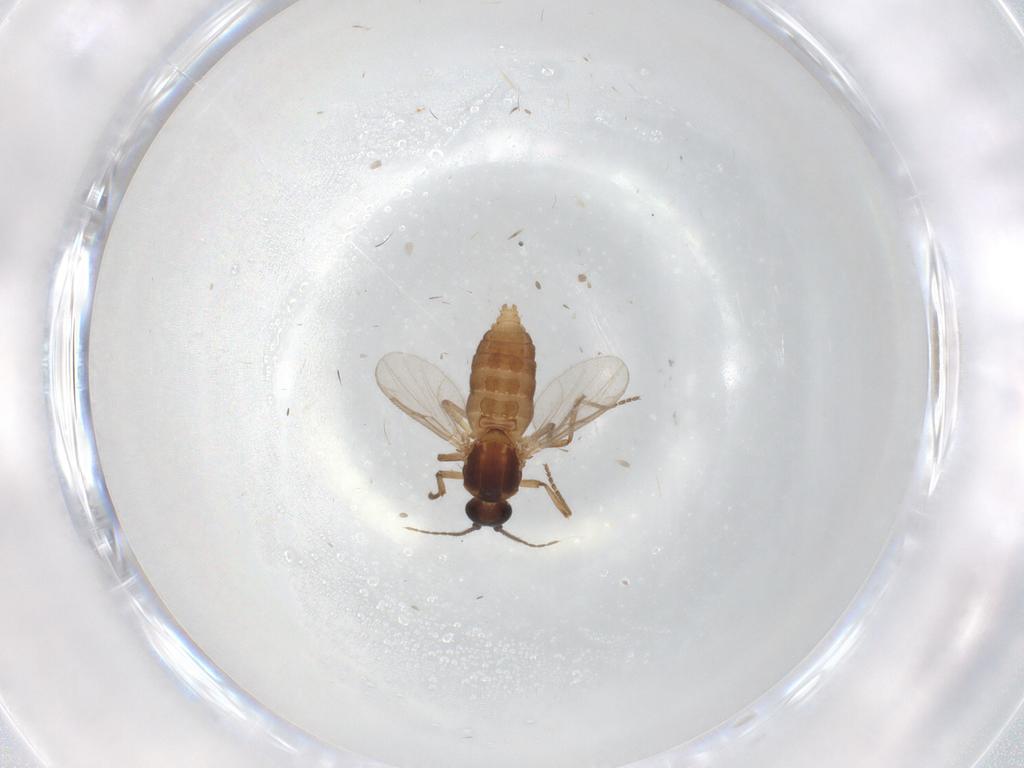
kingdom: Animalia
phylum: Arthropoda
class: Insecta
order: Diptera
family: Ceratopogonidae
